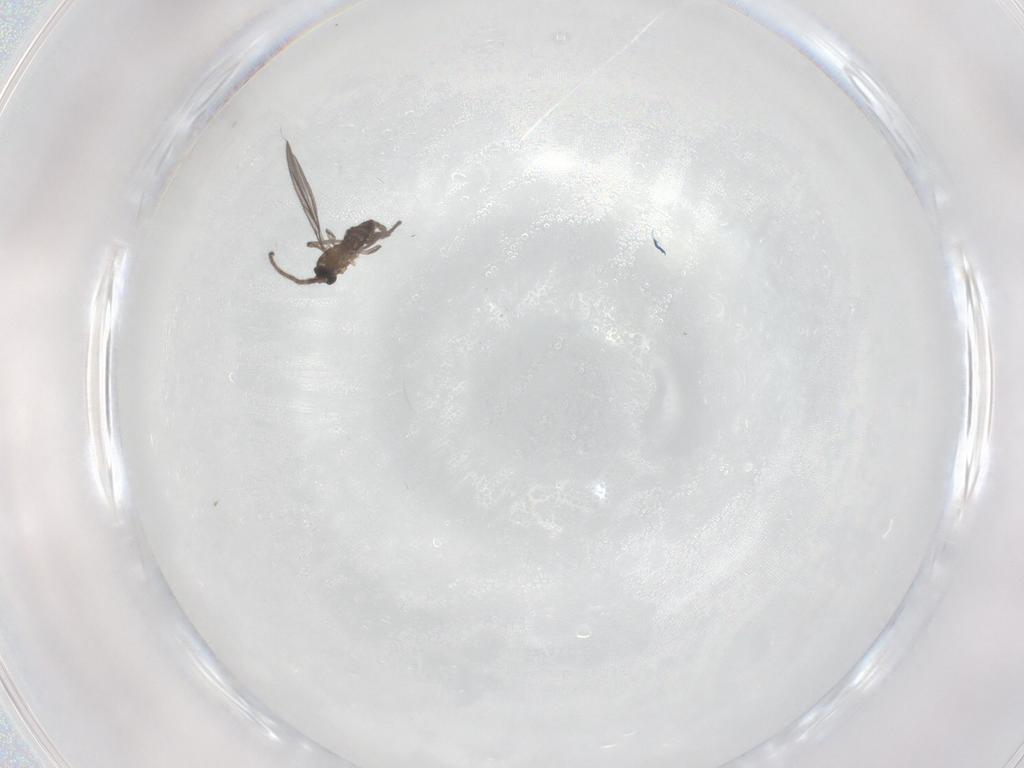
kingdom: Animalia
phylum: Arthropoda
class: Insecta
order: Diptera
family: Sciaridae
